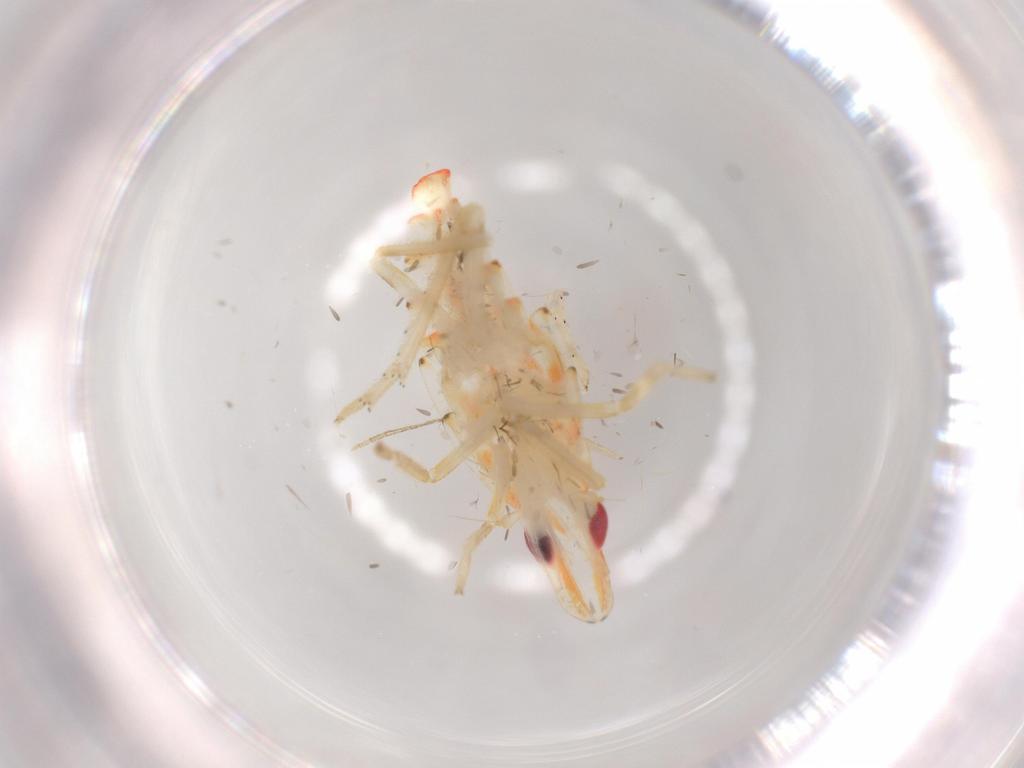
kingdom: Animalia
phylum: Arthropoda
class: Insecta
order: Hemiptera
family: Tropiduchidae
